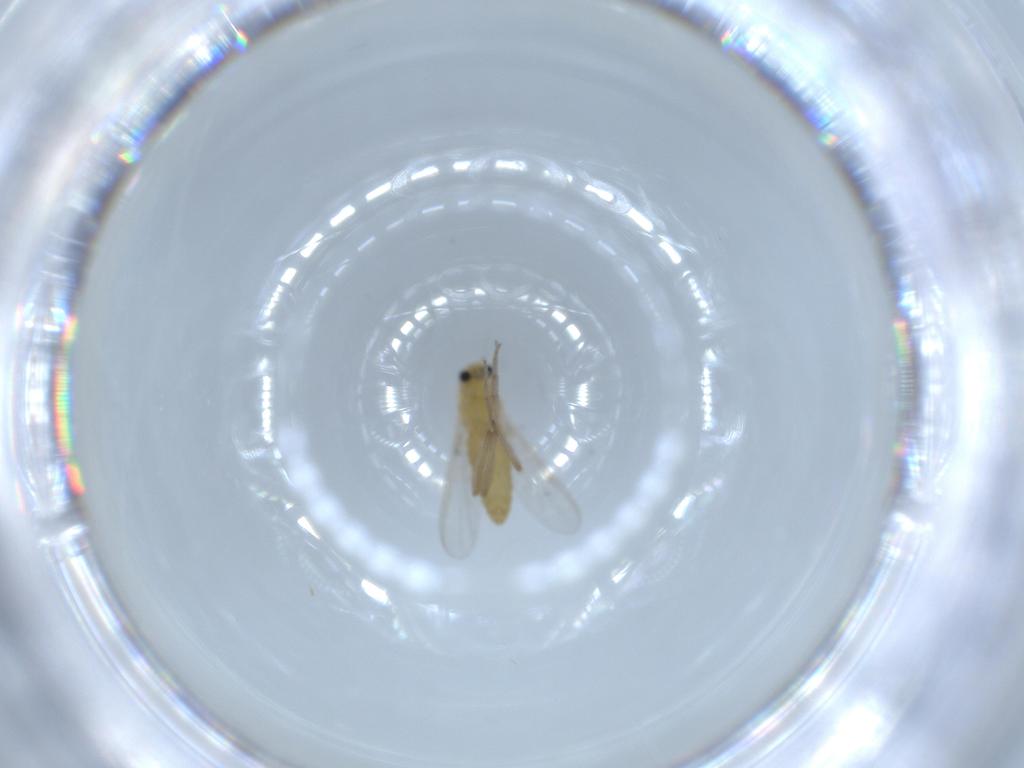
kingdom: Animalia
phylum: Arthropoda
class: Insecta
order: Diptera
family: Chironomidae
